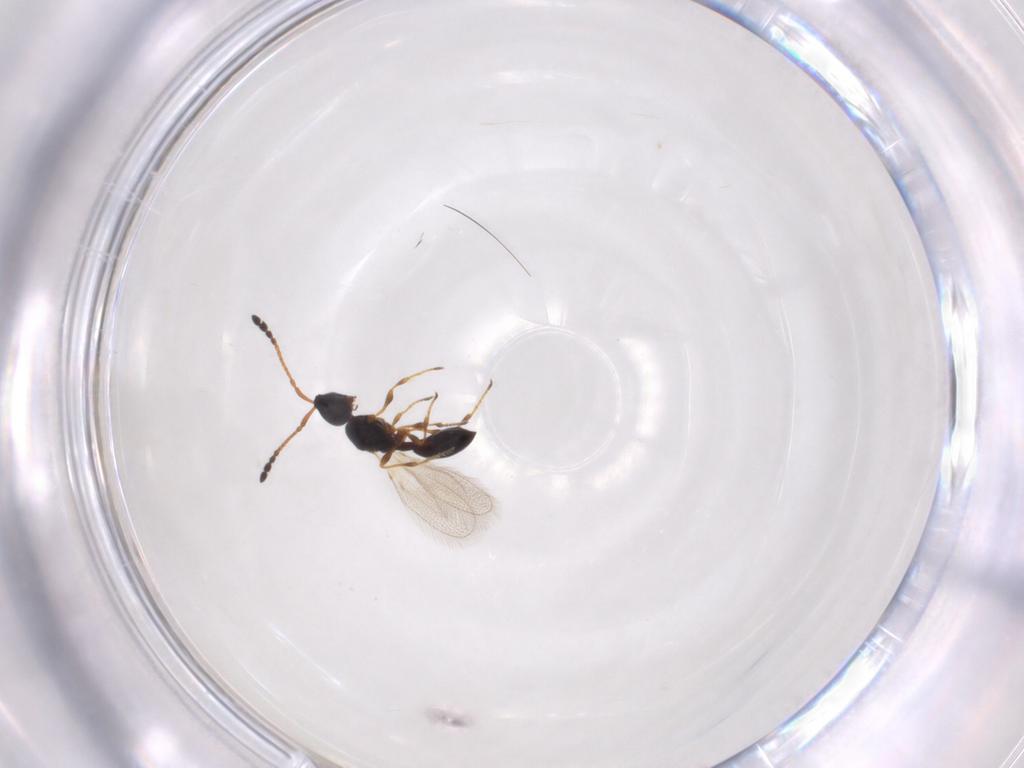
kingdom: Animalia
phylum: Arthropoda
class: Insecta
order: Hymenoptera
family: Diapriidae
